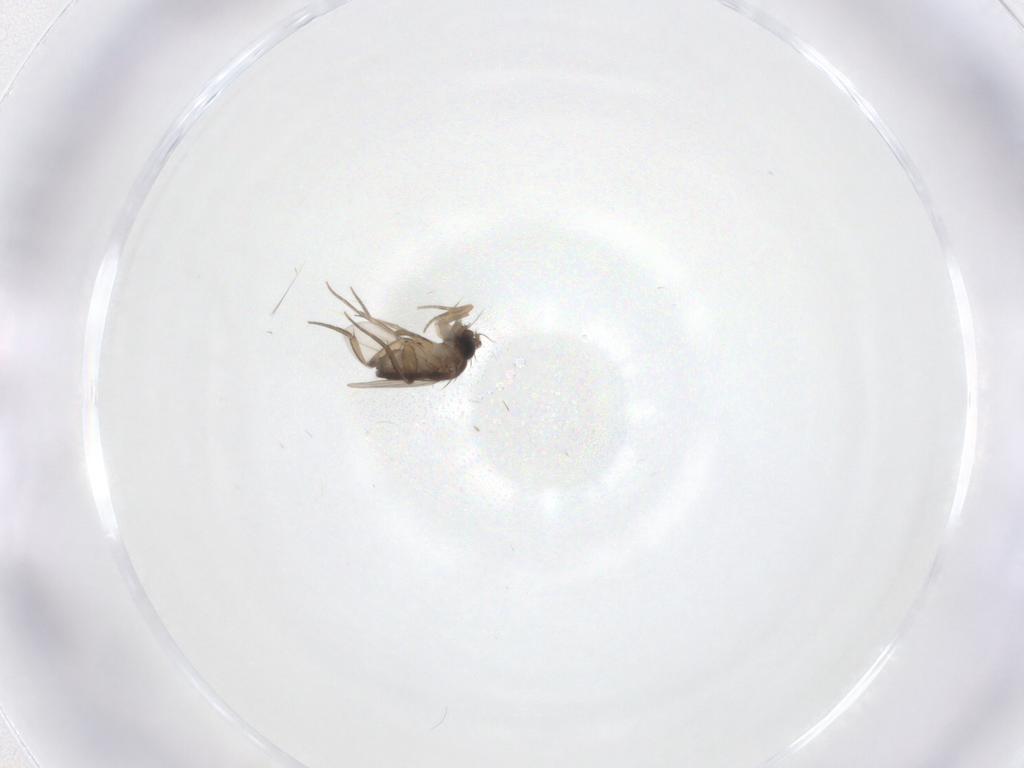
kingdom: Animalia
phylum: Arthropoda
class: Insecta
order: Diptera
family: Phoridae
